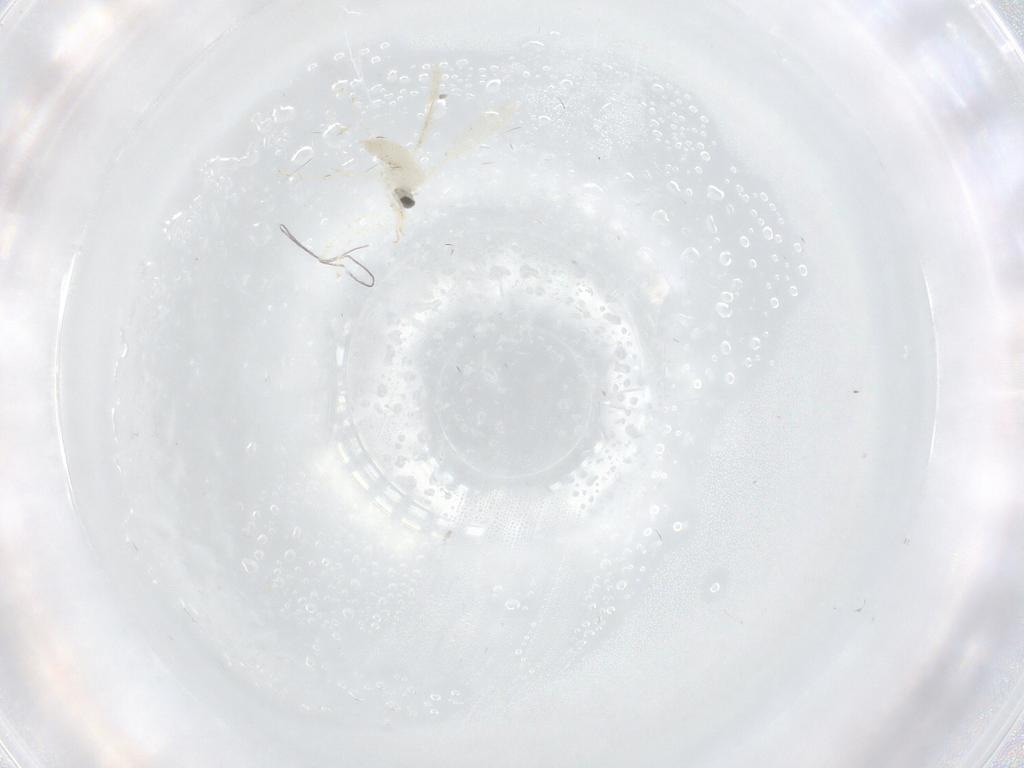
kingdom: Animalia
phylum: Arthropoda
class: Insecta
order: Diptera
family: Cecidomyiidae
